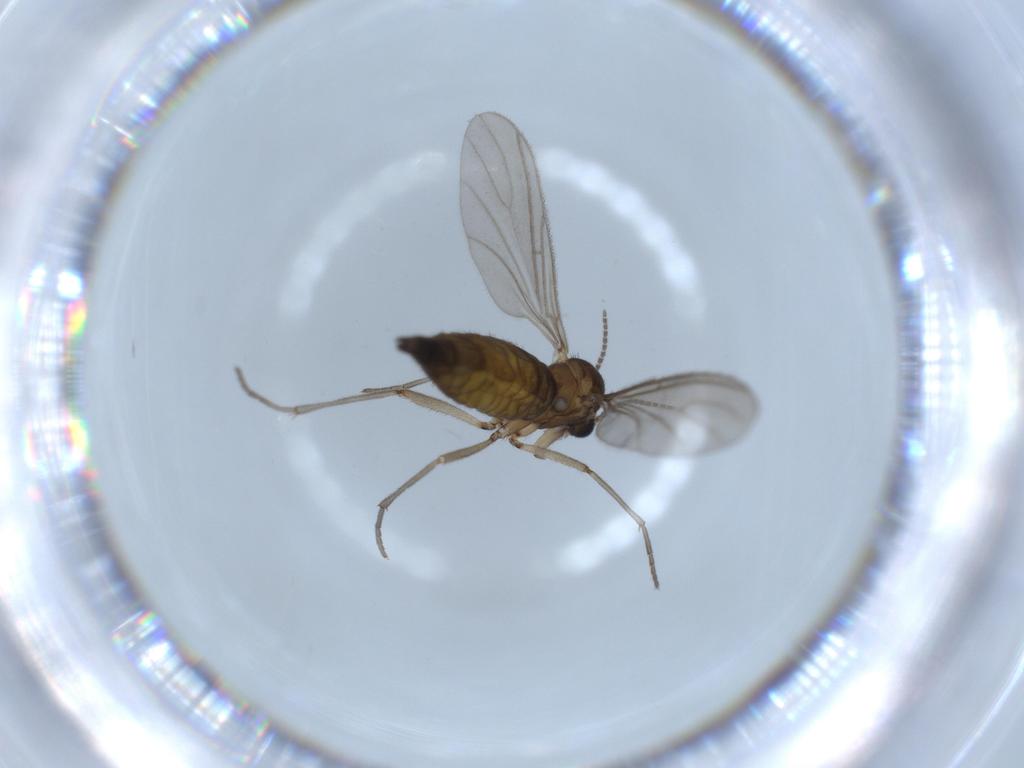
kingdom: Animalia
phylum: Arthropoda
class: Insecta
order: Diptera
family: Sciaridae
